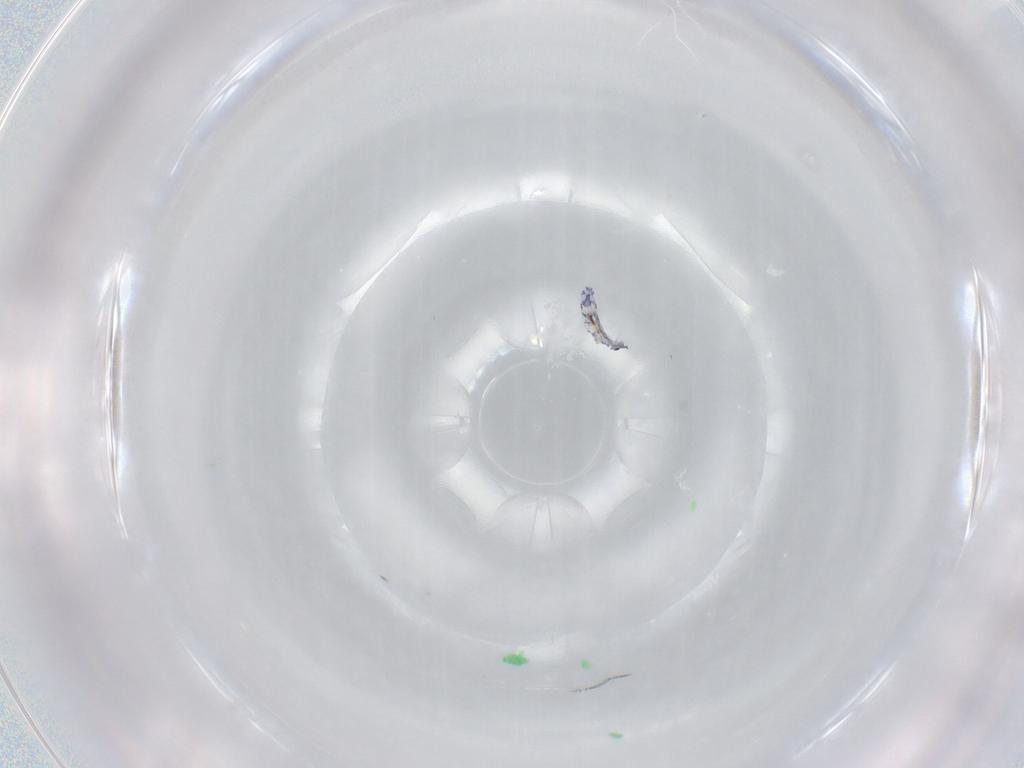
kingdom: Animalia
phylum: Arthropoda
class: Collembola
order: Entomobryomorpha
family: Entomobryidae
